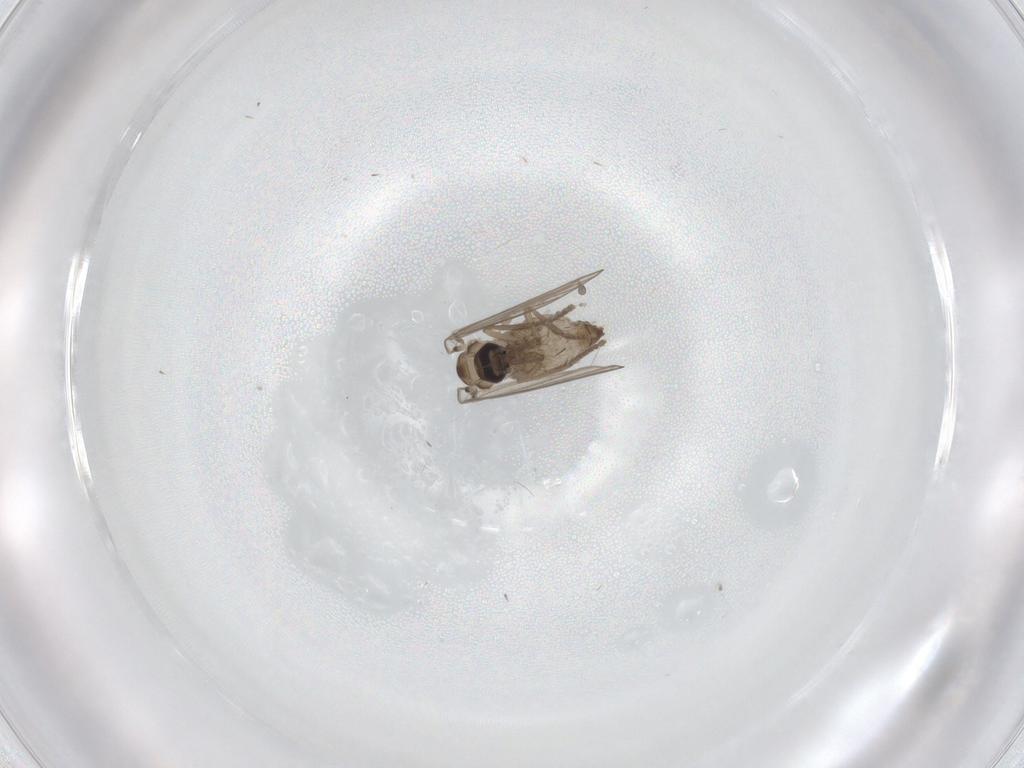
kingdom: Animalia
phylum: Arthropoda
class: Insecta
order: Diptera
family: Psychodidae
